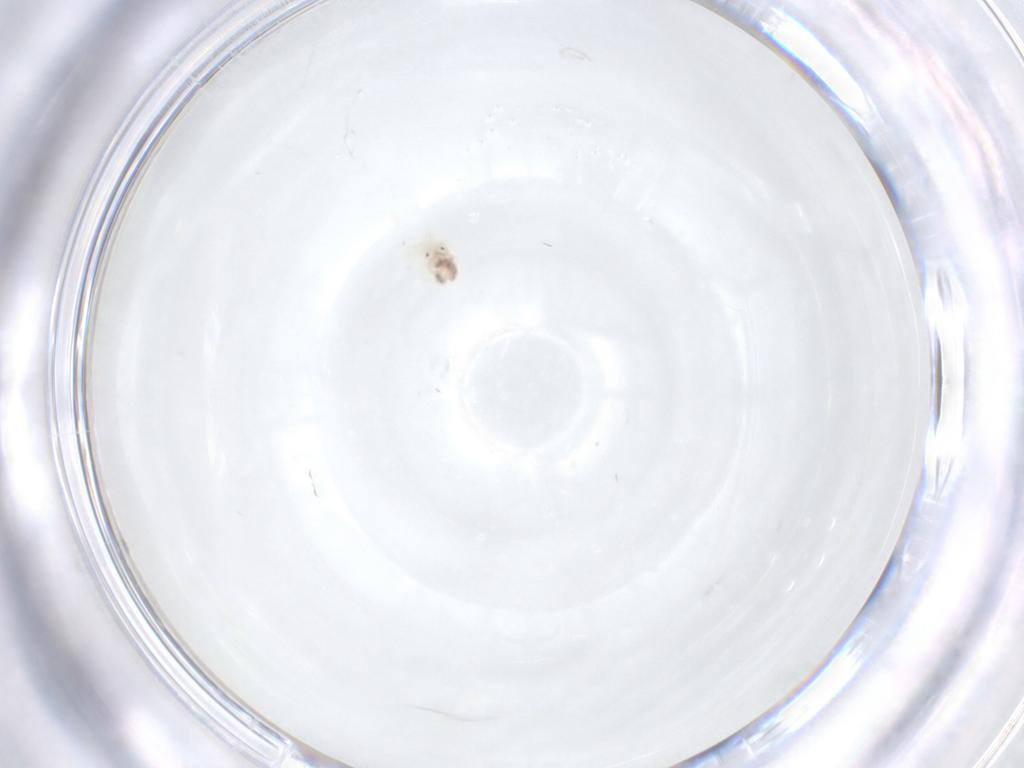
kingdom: Animalia
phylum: Arthropoda
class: Arachnida
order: Trombidiformes
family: Anystidae
